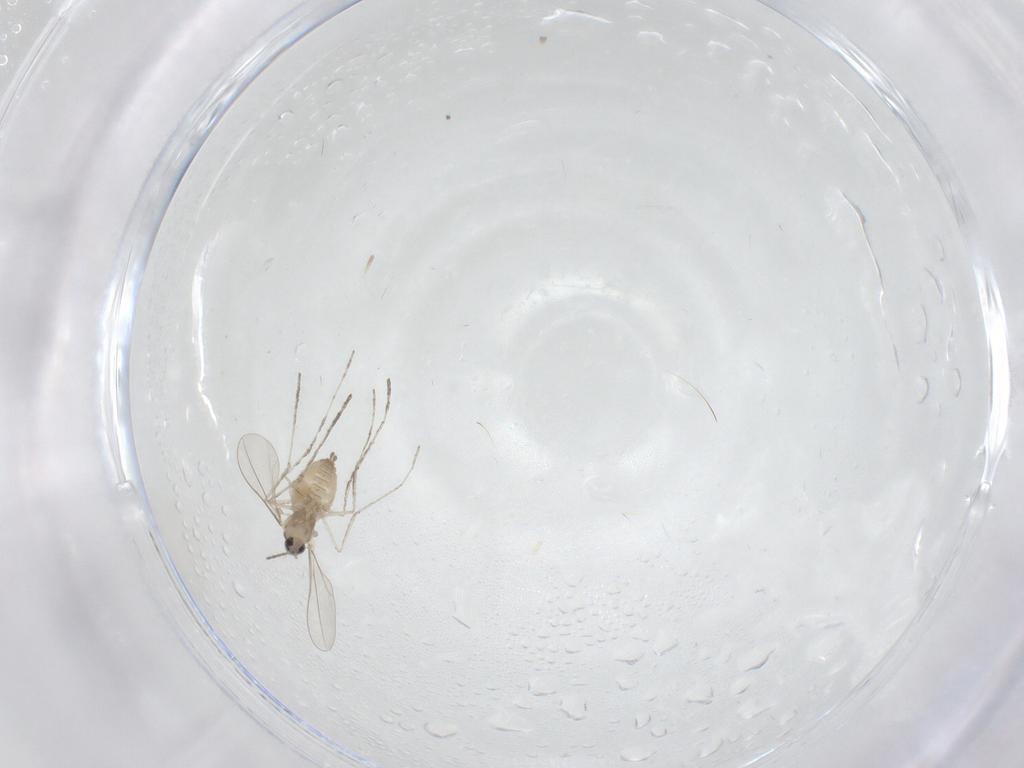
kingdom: Animalia
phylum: Arthropoda
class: Insecta
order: Diptera
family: Cecidomyiidae
